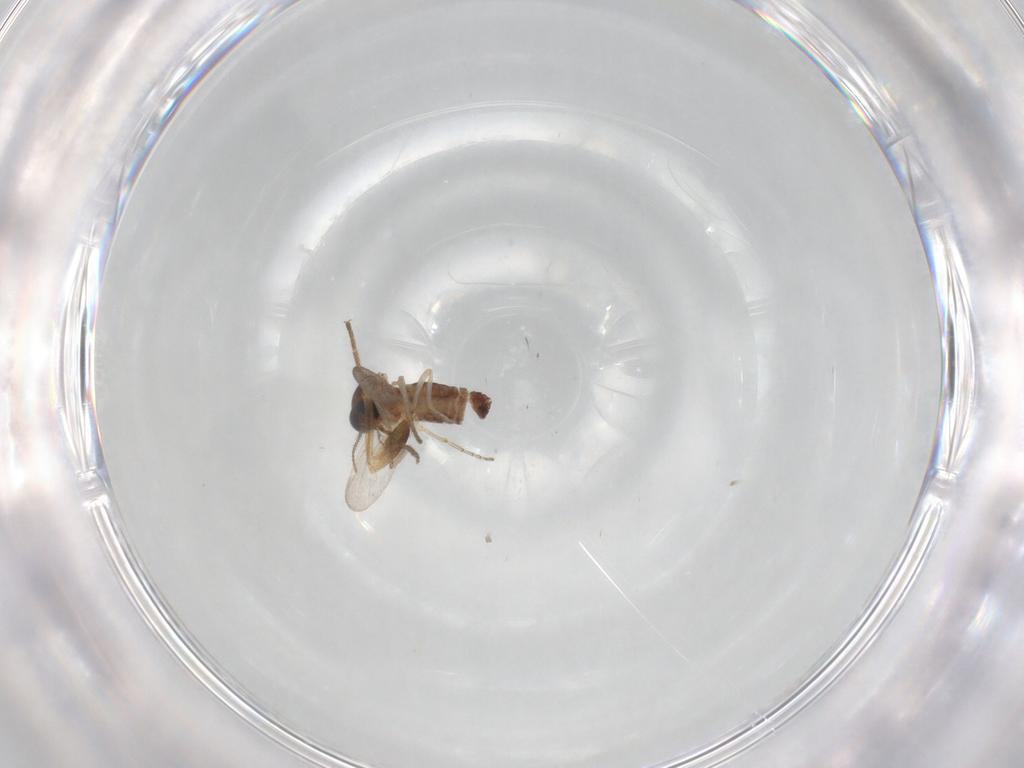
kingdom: Animalia
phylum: Arthropoda
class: Insecta
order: Diptera
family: Ceratopogonidae
